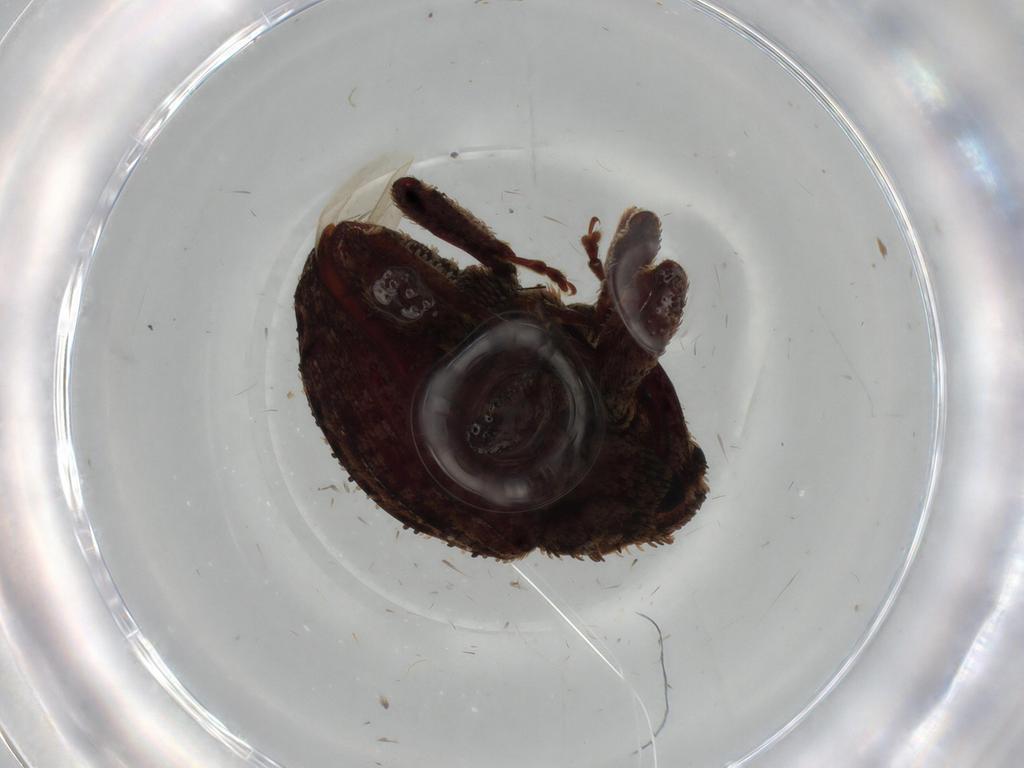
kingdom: Animalia
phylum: Arthropoda
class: Insecta
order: Coleoptera
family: Curculionidae
